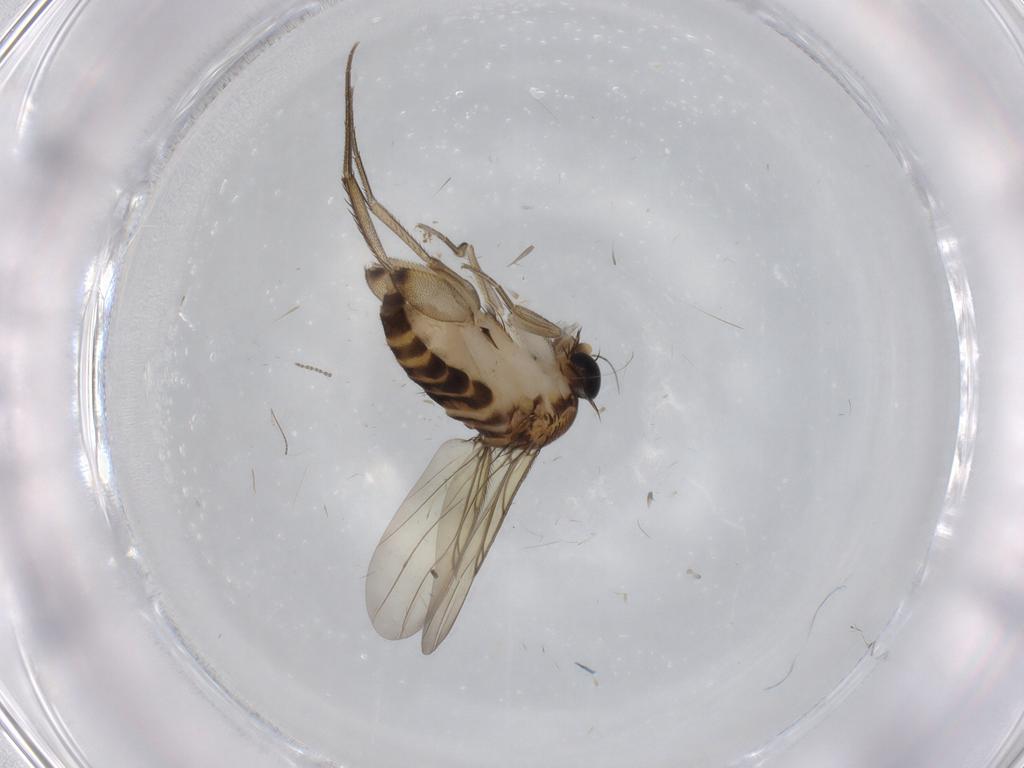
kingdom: Animalia
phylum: Arthropoda
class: Insecta
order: Diptera
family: Phoridae
